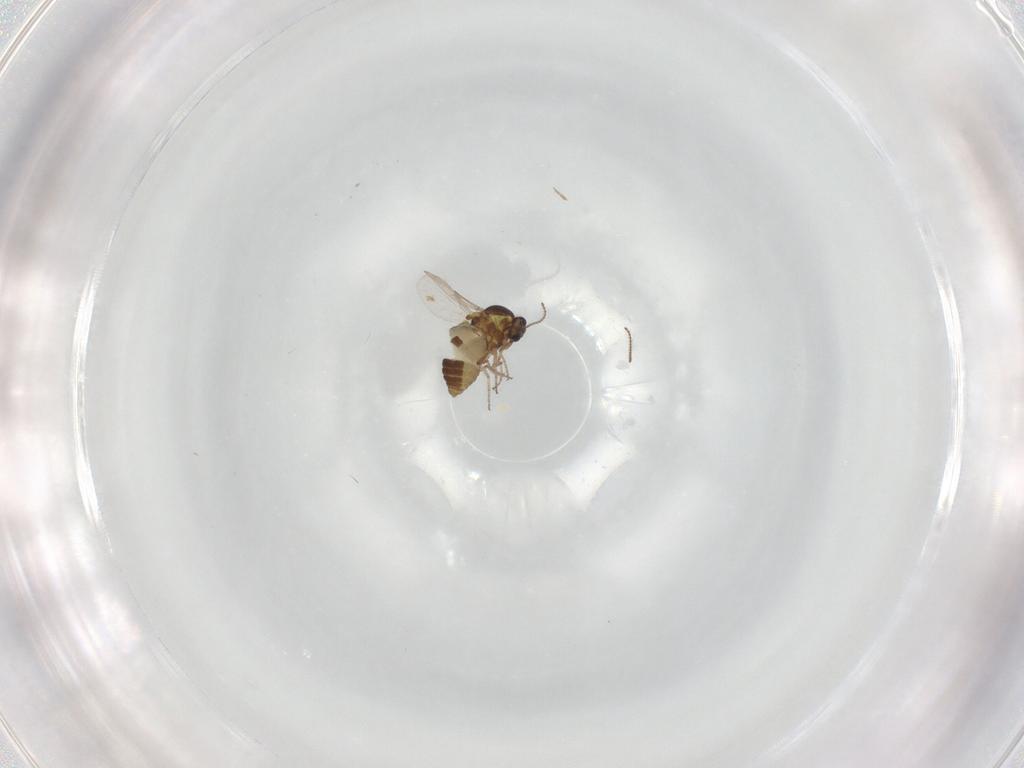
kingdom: Animalia
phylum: Arthropoda
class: Insecta
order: Diptera
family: Ceratopogonidae
